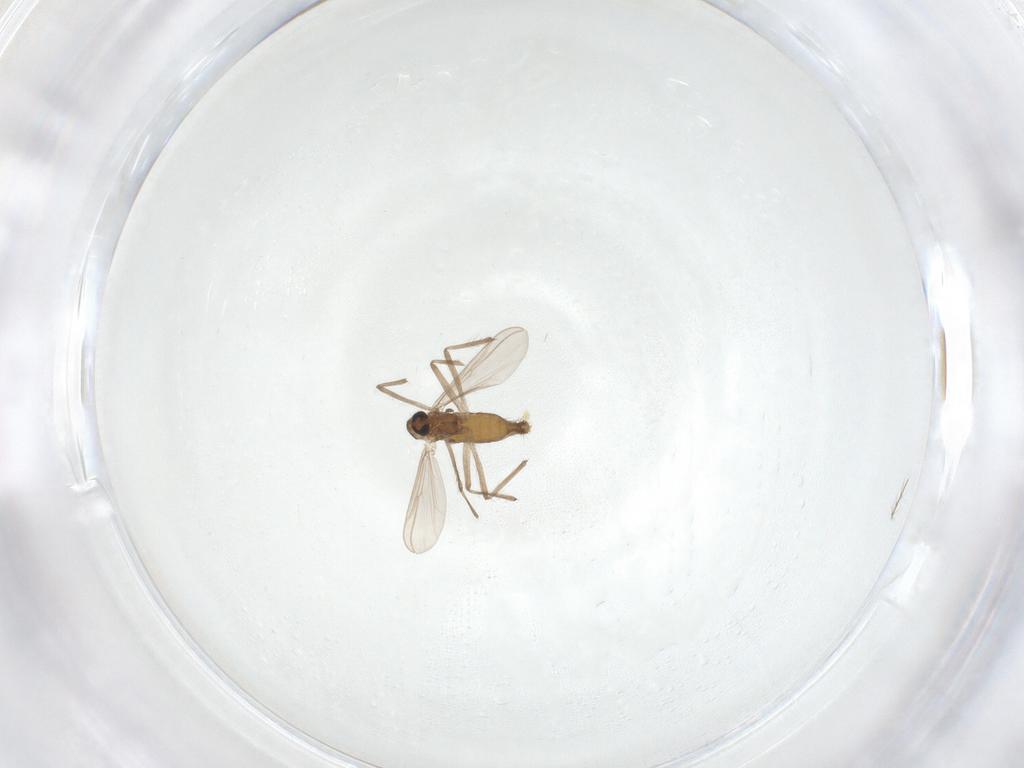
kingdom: Animalia
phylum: Arthropoda
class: Insecta
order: Diptera
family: Chironomidae
